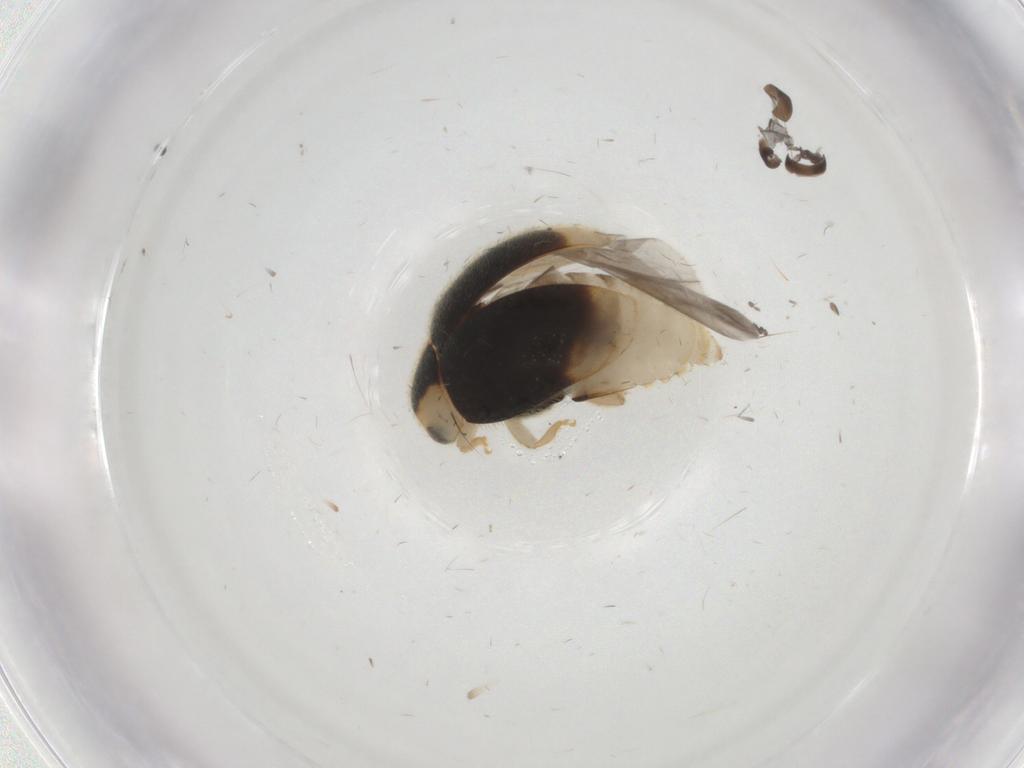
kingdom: Animalia
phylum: Arthropoda
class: Insecta
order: Coleoptera
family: Coccinellidae
